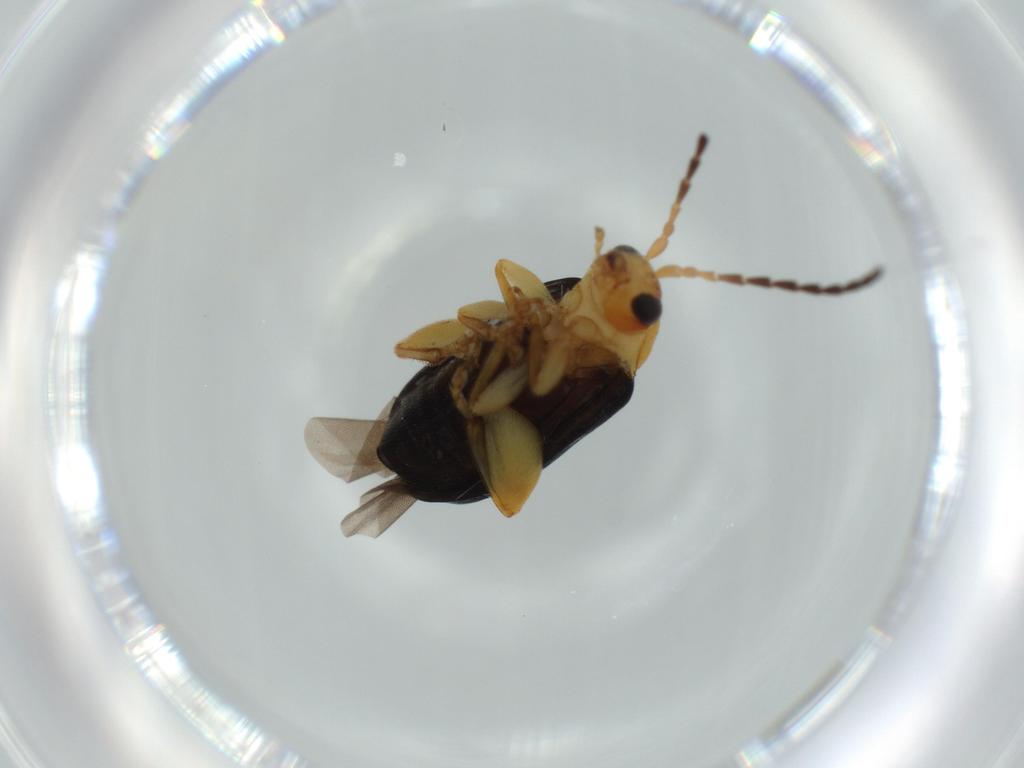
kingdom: Animalia
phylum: Arthropoda
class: Insecta
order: Coleoptera
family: Chrysomelidae
